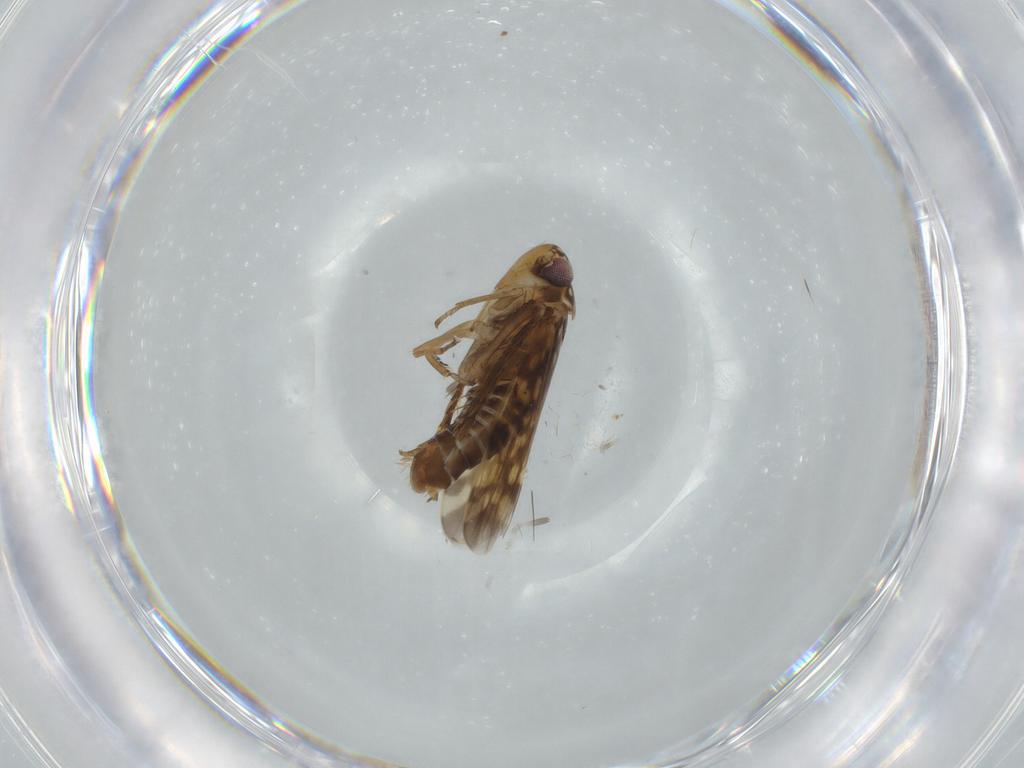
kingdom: Animalia
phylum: Arthropoda
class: Insecta
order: Hemiptera
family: Cicadellidae
